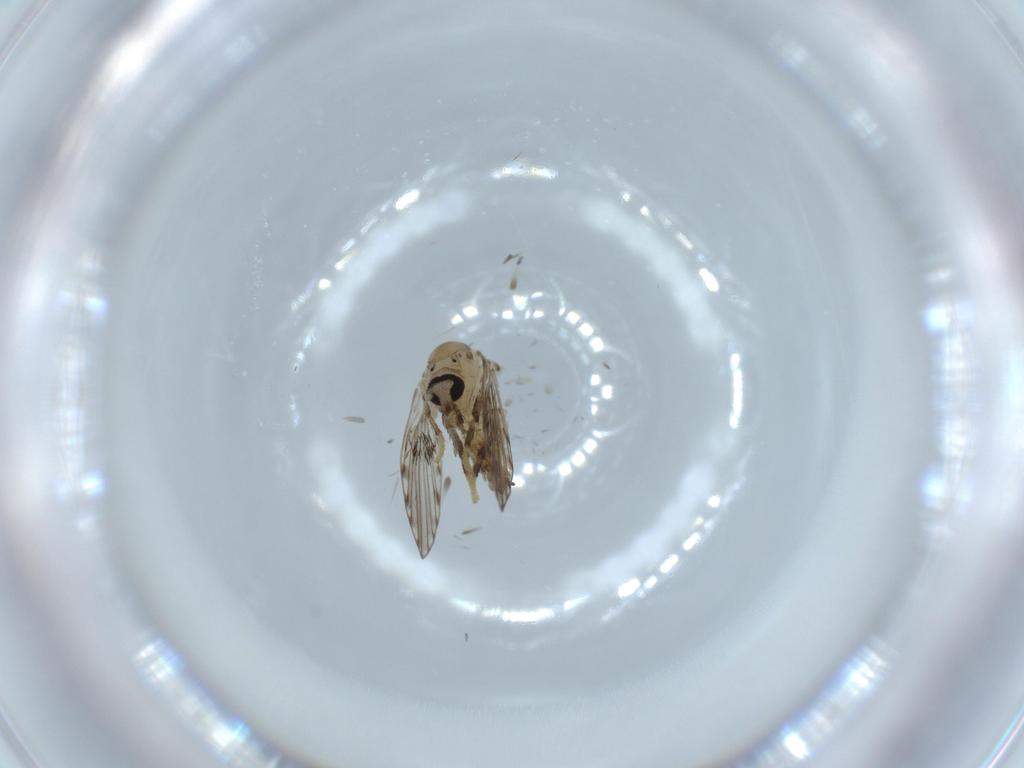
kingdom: Animalia
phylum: Arthropoda
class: Insecta
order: Diptera
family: Psychodidae
